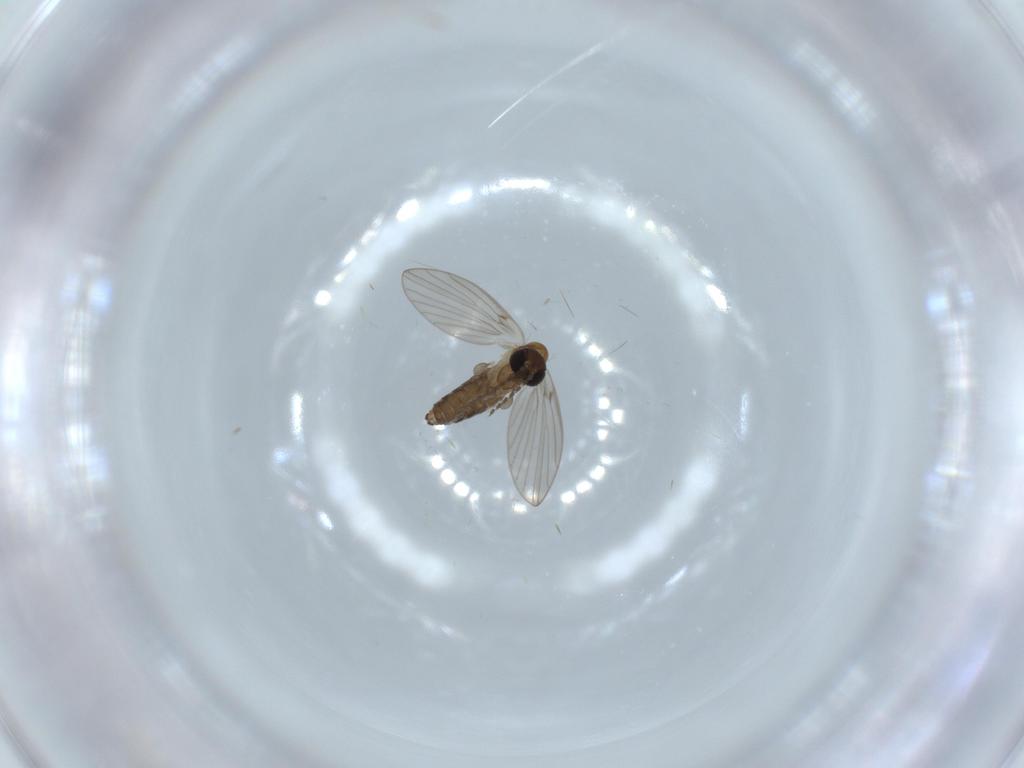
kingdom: Animalia
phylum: Arthropoda
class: Insecta
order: Diptera
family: Psychodidae
